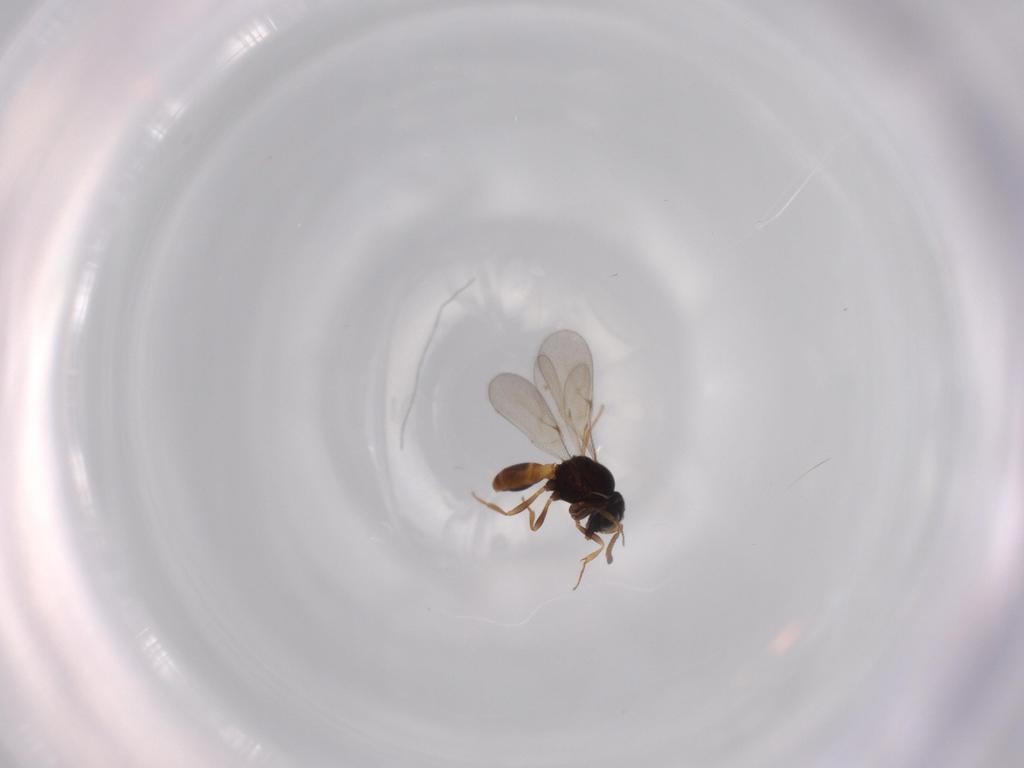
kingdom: Animalia
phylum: Arthropoda
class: Insecta
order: Hymenoptera
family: Scelionidae
